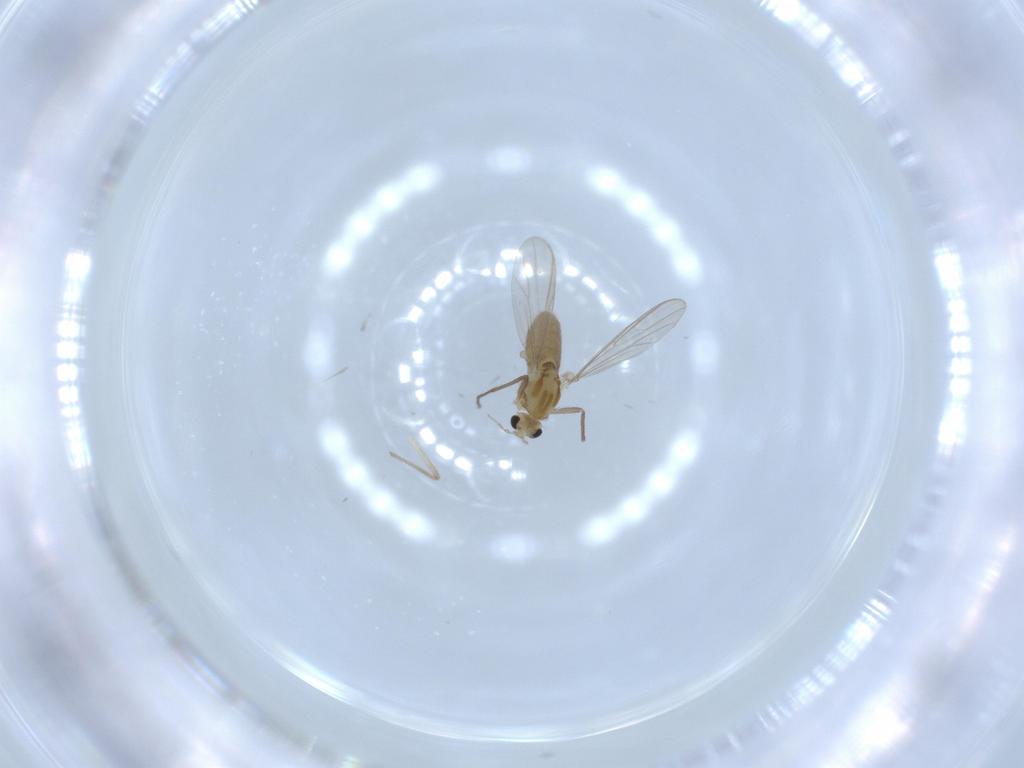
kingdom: Animalia
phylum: Arthropoda
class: Insecta
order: Diptera
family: Chironomidae
